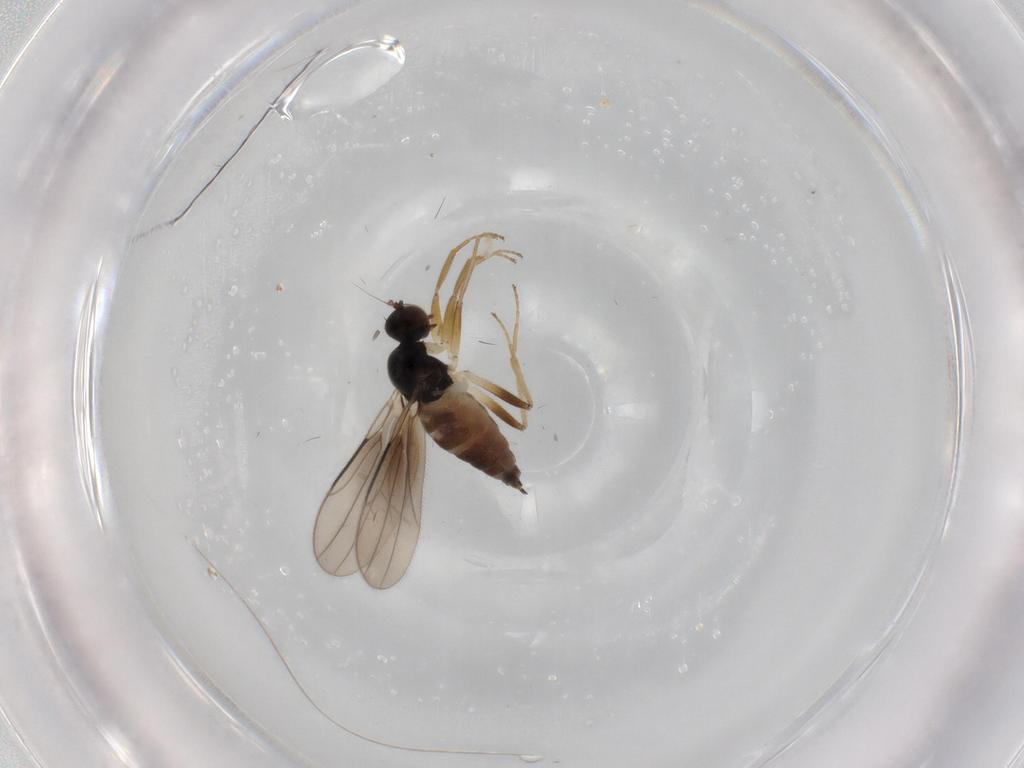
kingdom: Animalia
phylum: Arthropoda
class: Insecta
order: Diptera
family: Hybotidae
